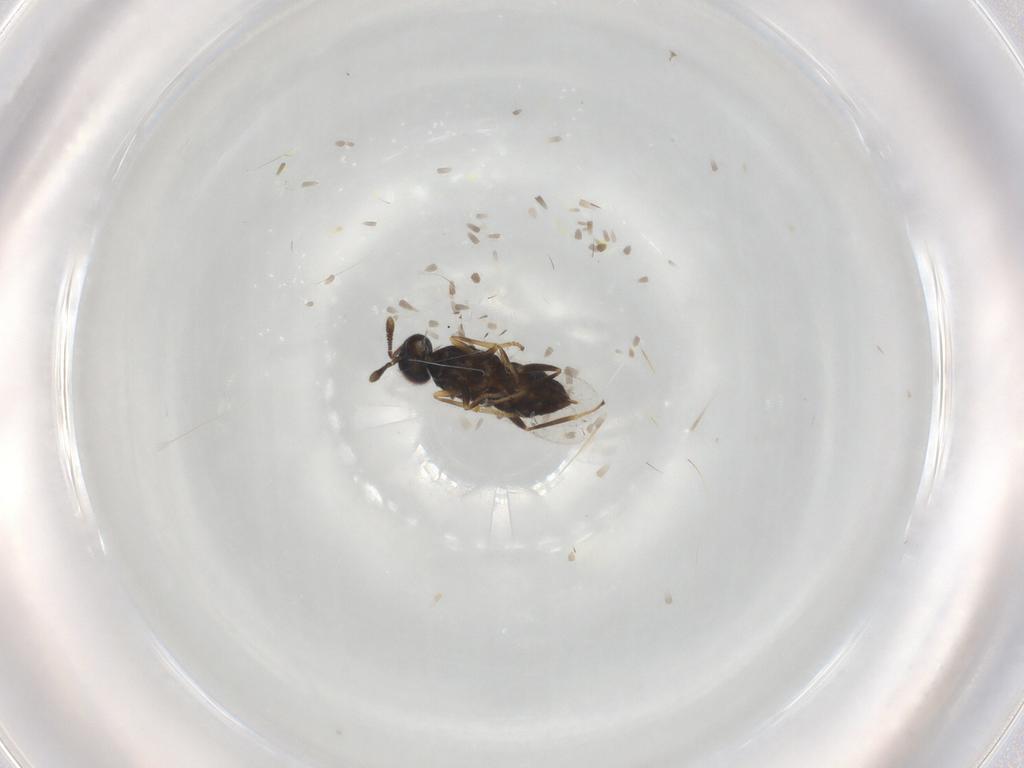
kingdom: Animalia
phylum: Arthropoda
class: Insecta
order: Hymenoptera
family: Encyrtidae
